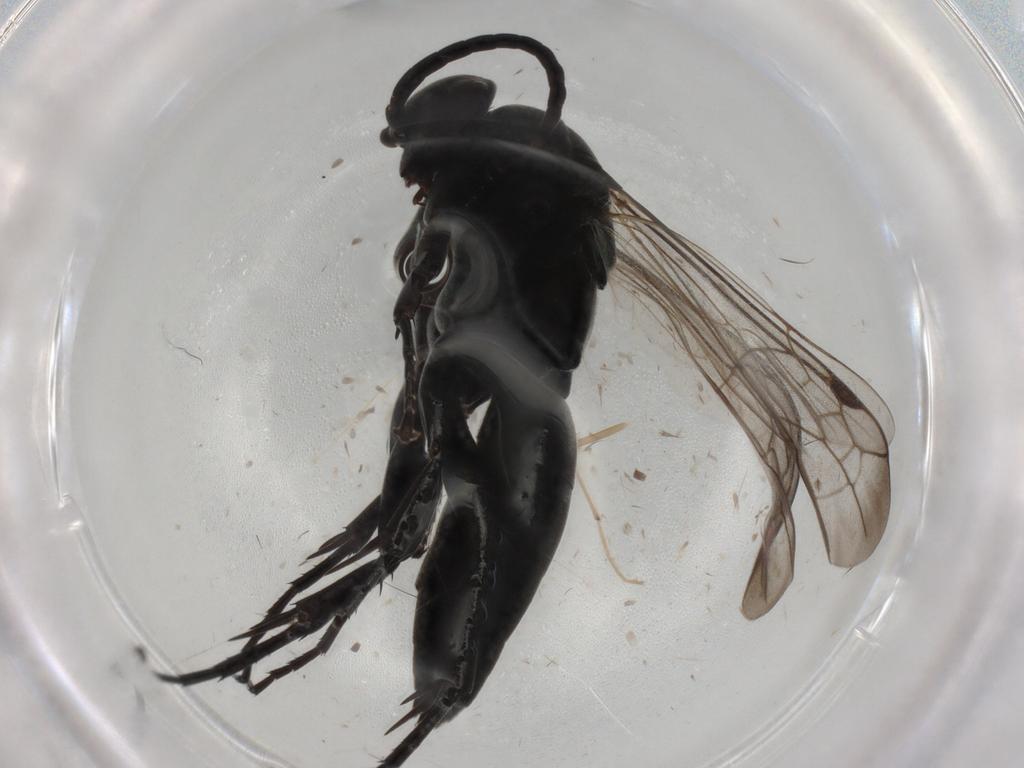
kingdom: Animalia
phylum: Arthropoda
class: Insecta
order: Hymenoptera
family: Pompilidae
